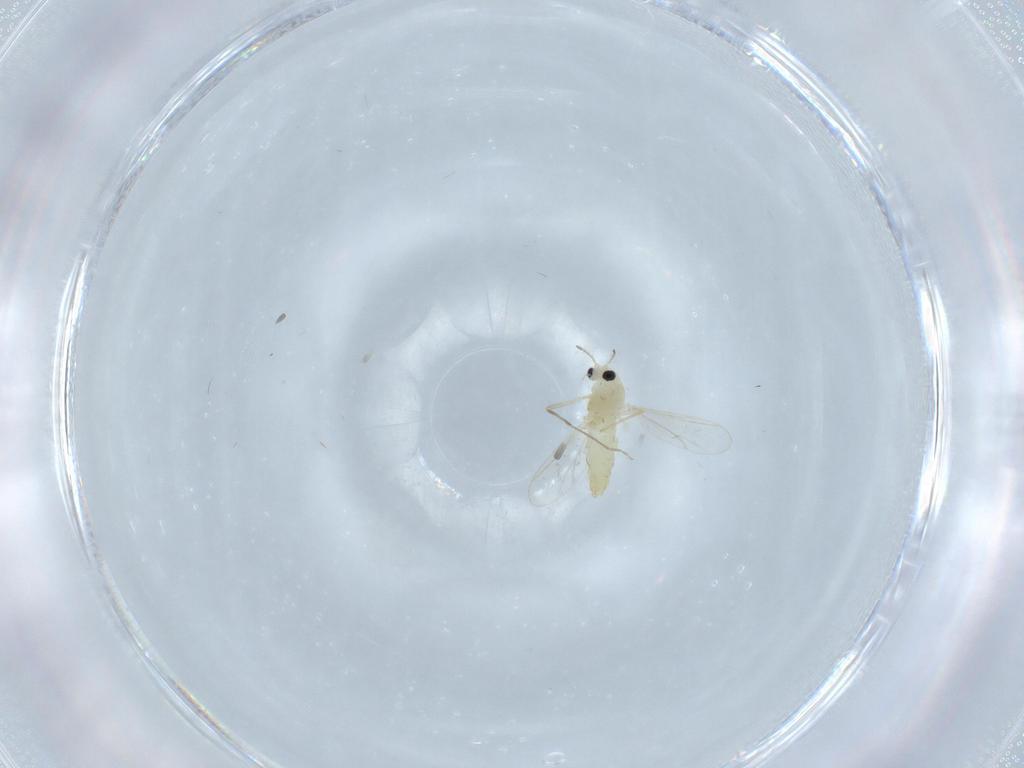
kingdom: Animalia
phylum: Arthropoda
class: Insecta
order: Diptera
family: Chironomidae
